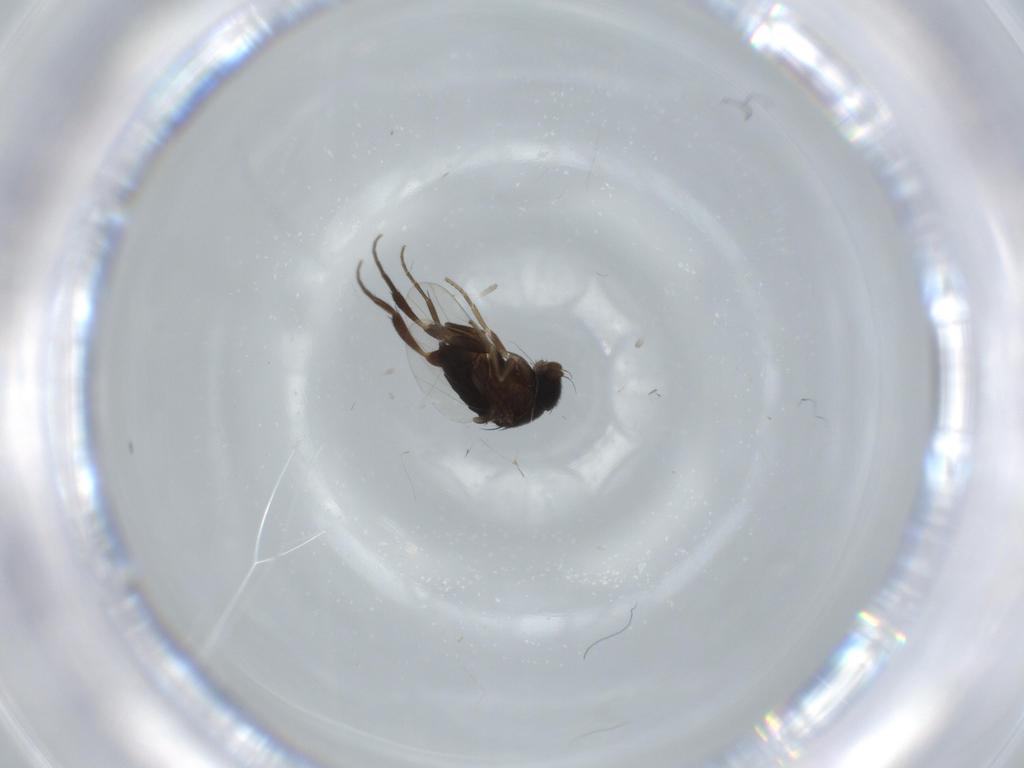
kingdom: Animalia
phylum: Arthropoda
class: Insecta
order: Diptera
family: Phoridae
